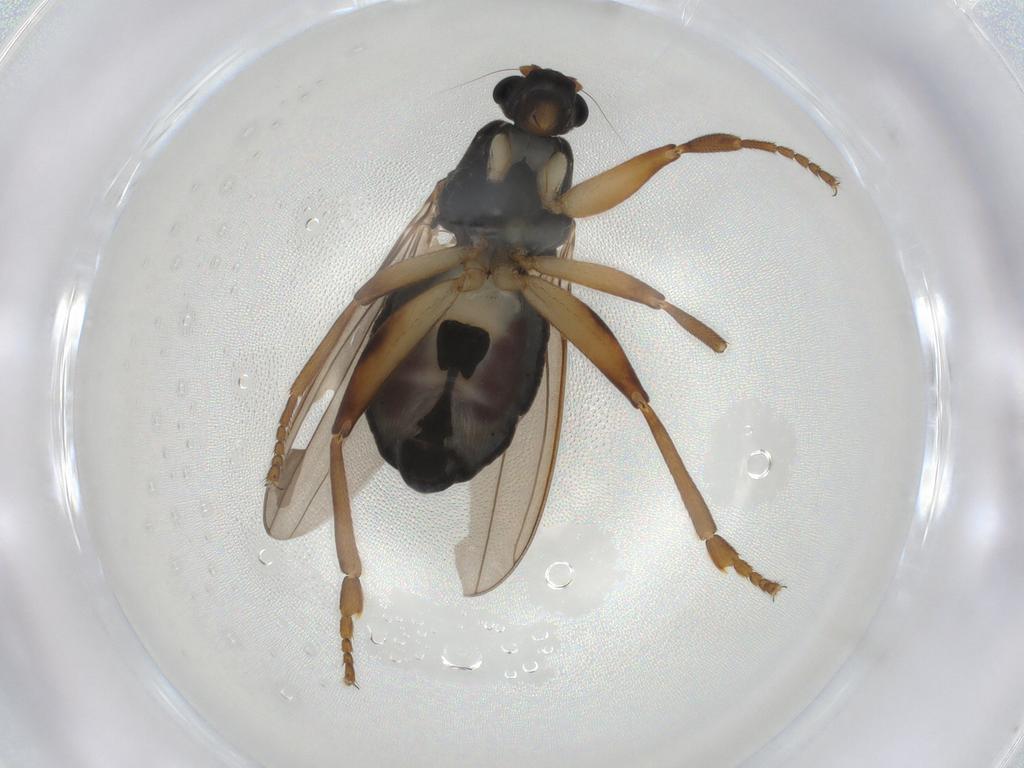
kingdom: Animalia
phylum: Arthropoda
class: Insecta
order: Diptera
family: Sphaeroceridae
